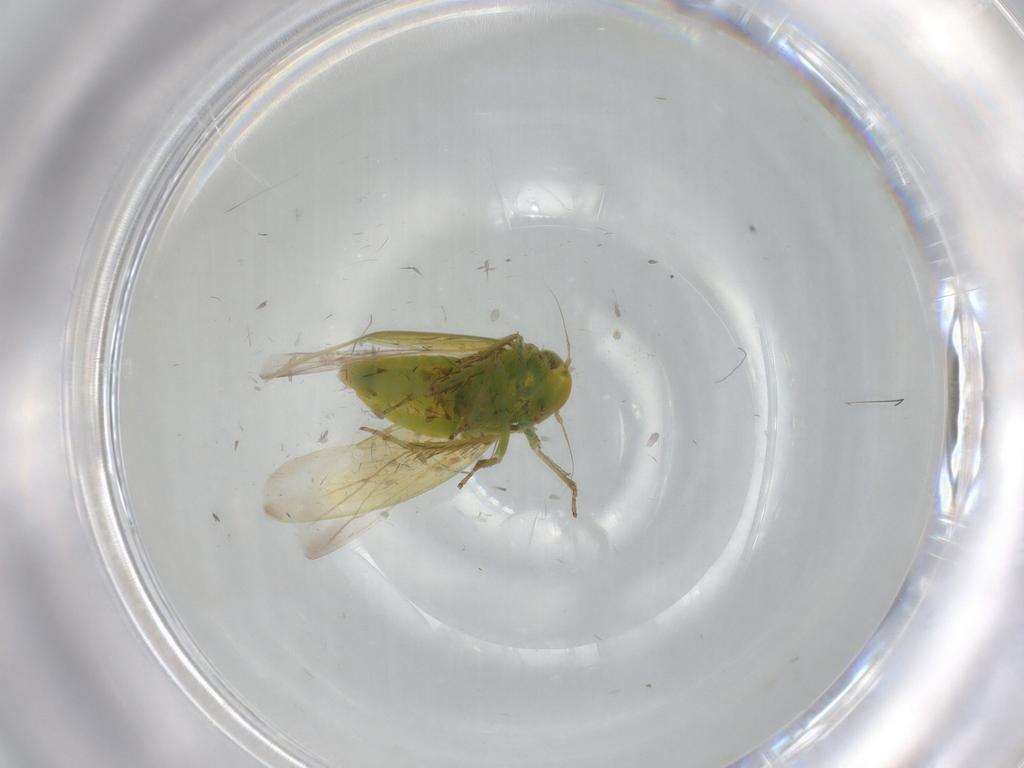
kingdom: Animalia
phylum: Arthropoda
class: Insecta
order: Hemiptera
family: Cicadellidae
